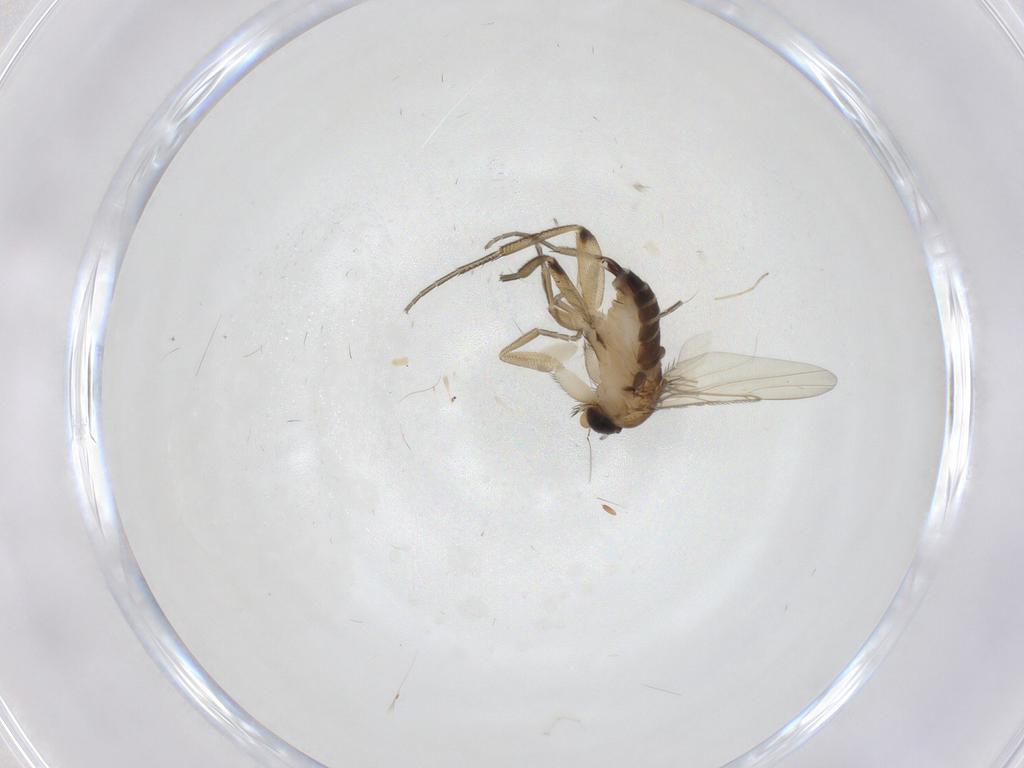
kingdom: Animalia
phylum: Arthropoda
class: Insecta
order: Diptera
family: Phoridae
